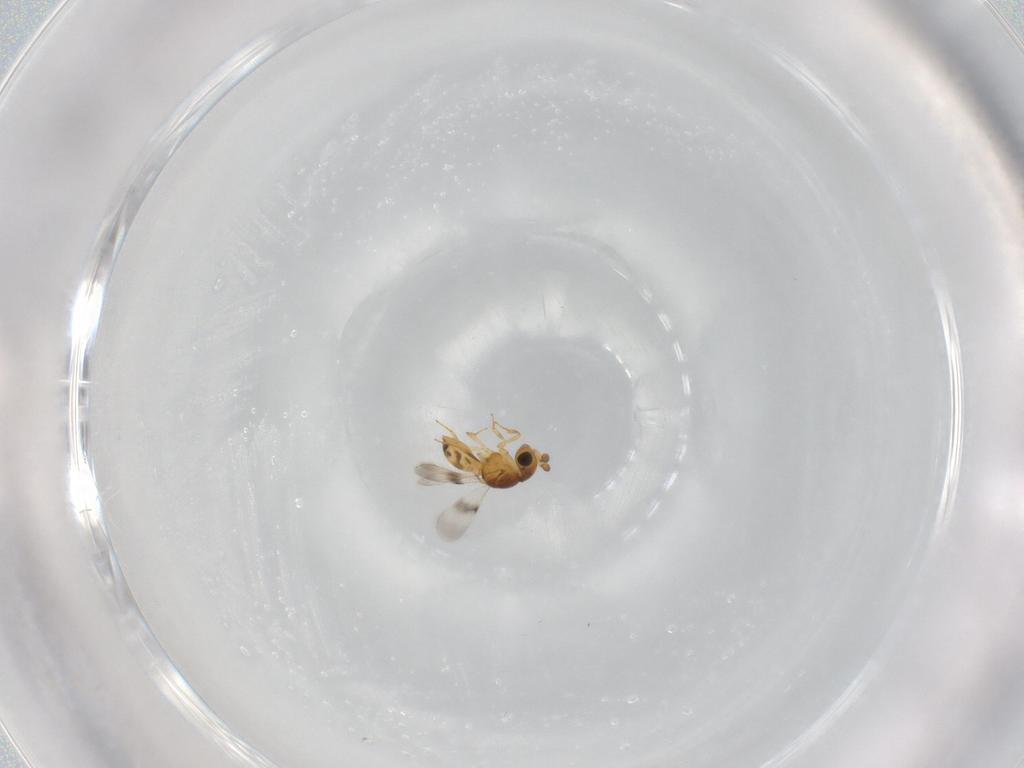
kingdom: Animalia
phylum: Arthropoda
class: Insecta
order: Hymenoptera
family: Scelionidae
